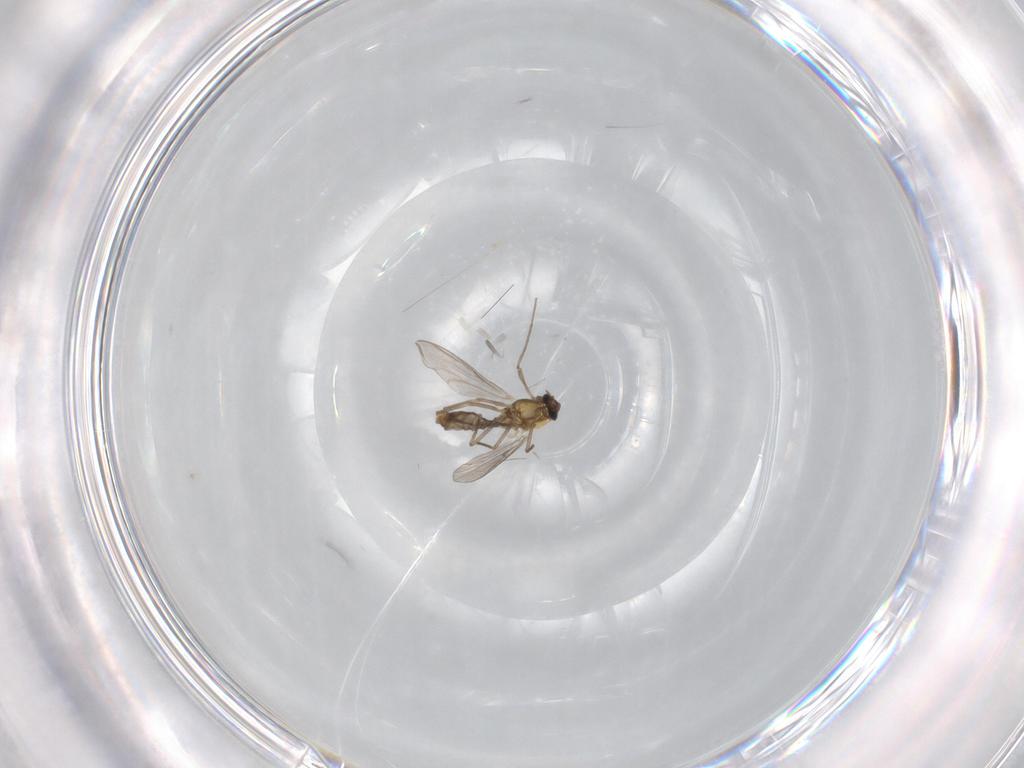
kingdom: Animalia
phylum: Arthropoda
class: Insecta
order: Diptera
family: Chironomidae
